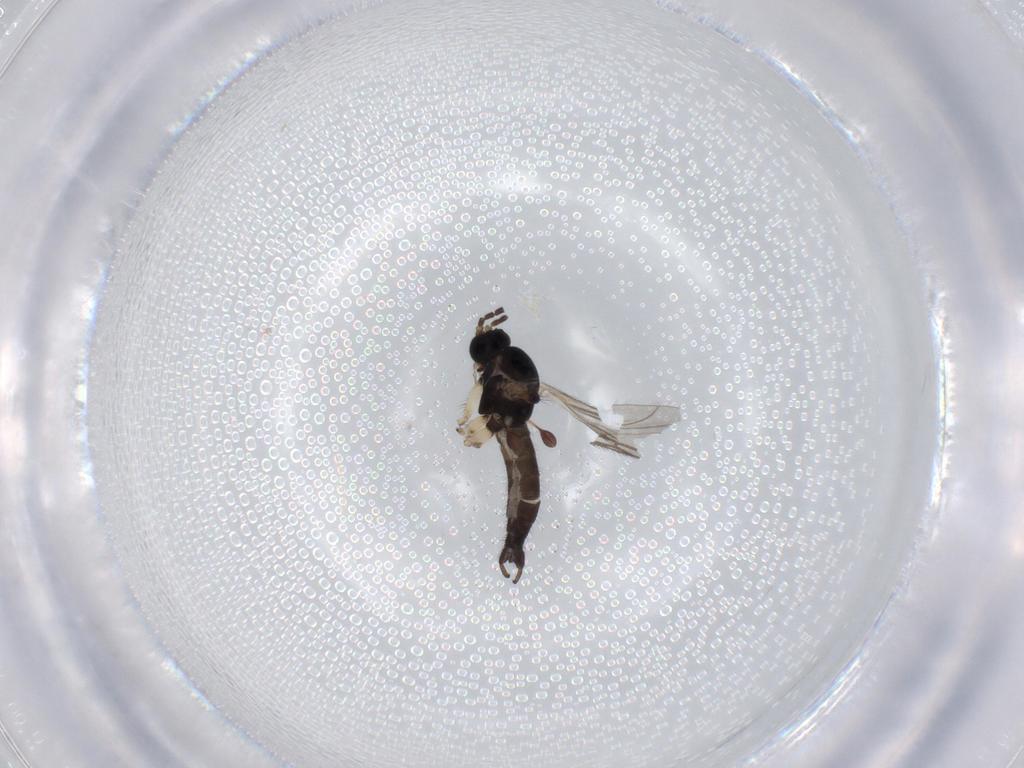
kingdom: Animalia
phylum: Arthropoda
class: Insecta
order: Diptera
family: Sciaridae
